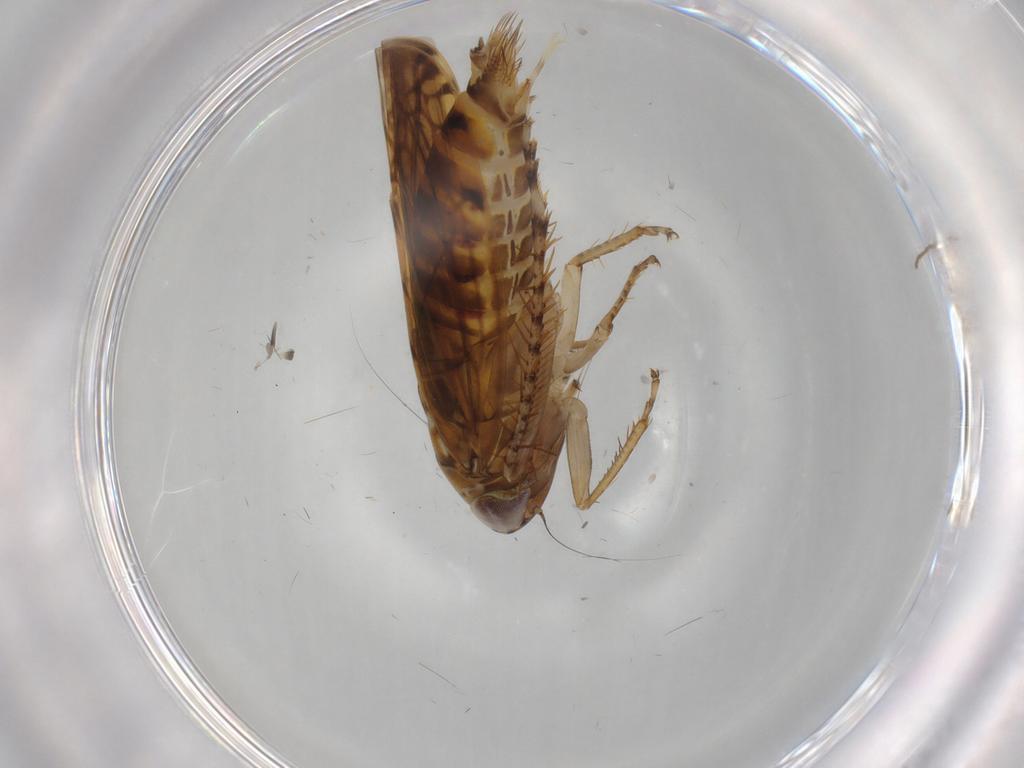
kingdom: Animalia
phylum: Arthropoda
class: Insecta
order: Hemiptera
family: Cicadellidae
